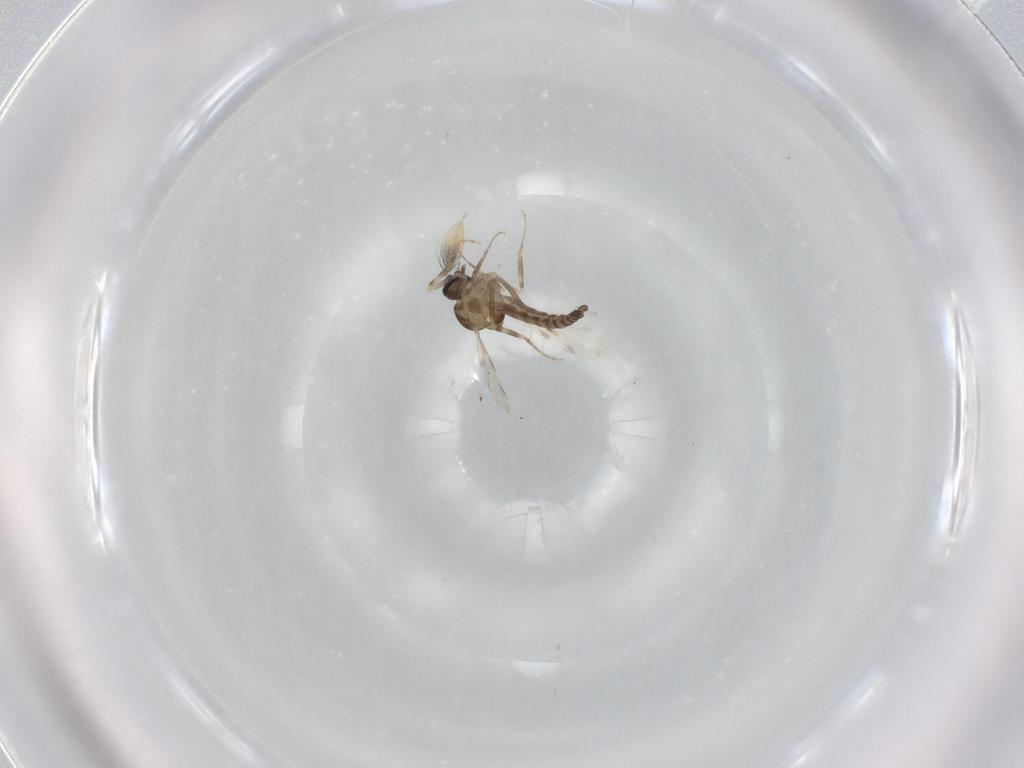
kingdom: Animalia
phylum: Arthropoda
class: Insecta
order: Diptera
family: Ceratopogonidae
